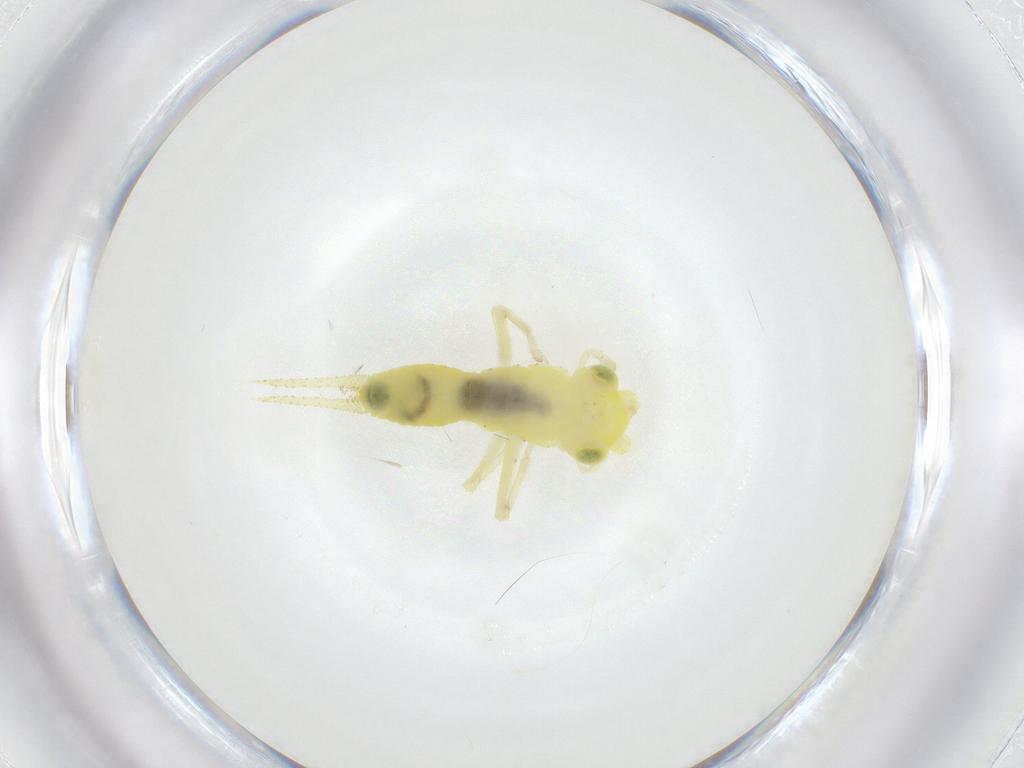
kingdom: Animalia
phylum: Arthropoda
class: Insecta
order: Orthoptera
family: Trigonidiidae
